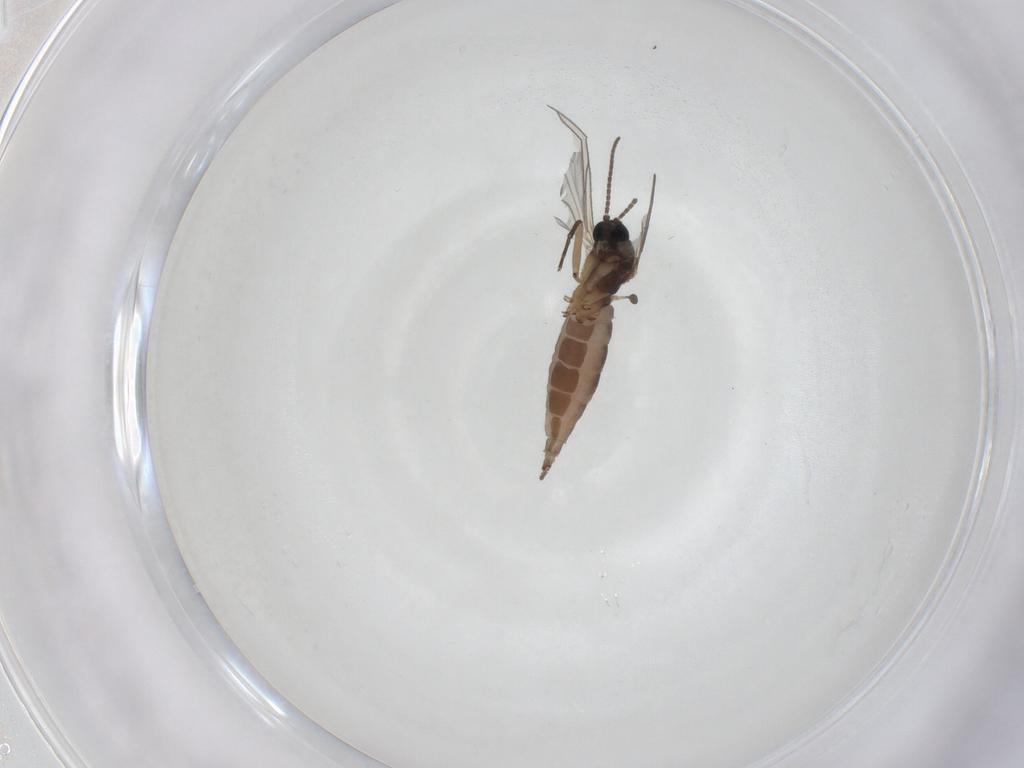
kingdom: Animalia
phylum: Arthropoda
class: Insecta
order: Diptera
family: Sciaridae
